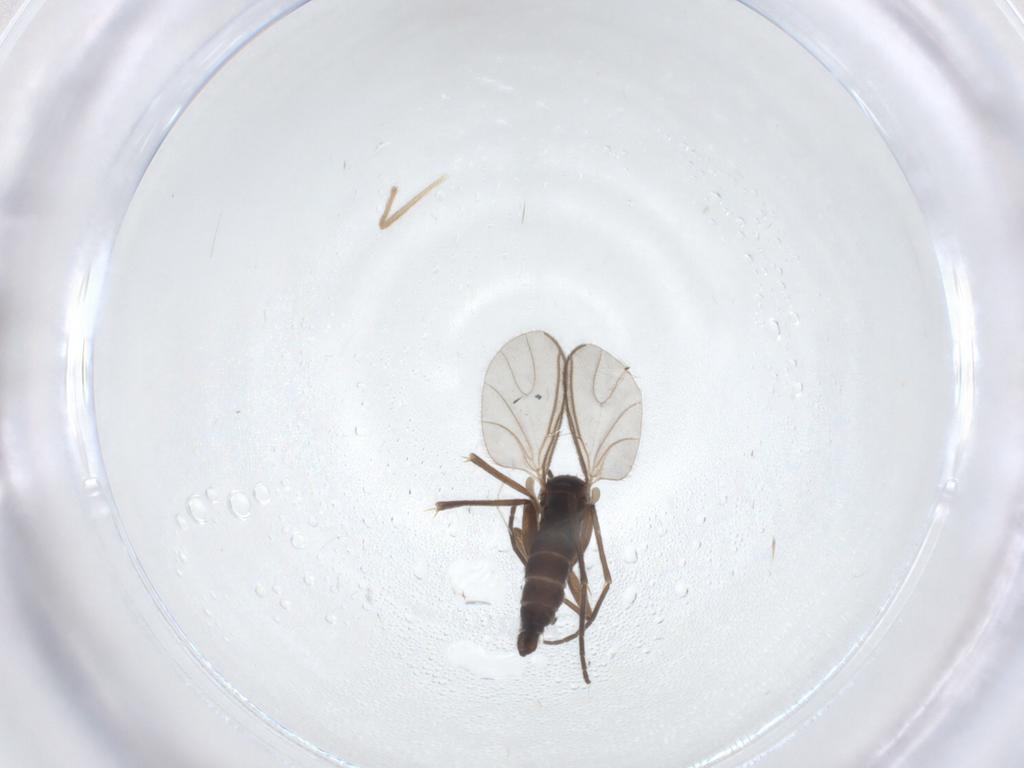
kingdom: Animalia
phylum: Arthropoda
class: Insecta
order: Diptera
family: Sciaridae
